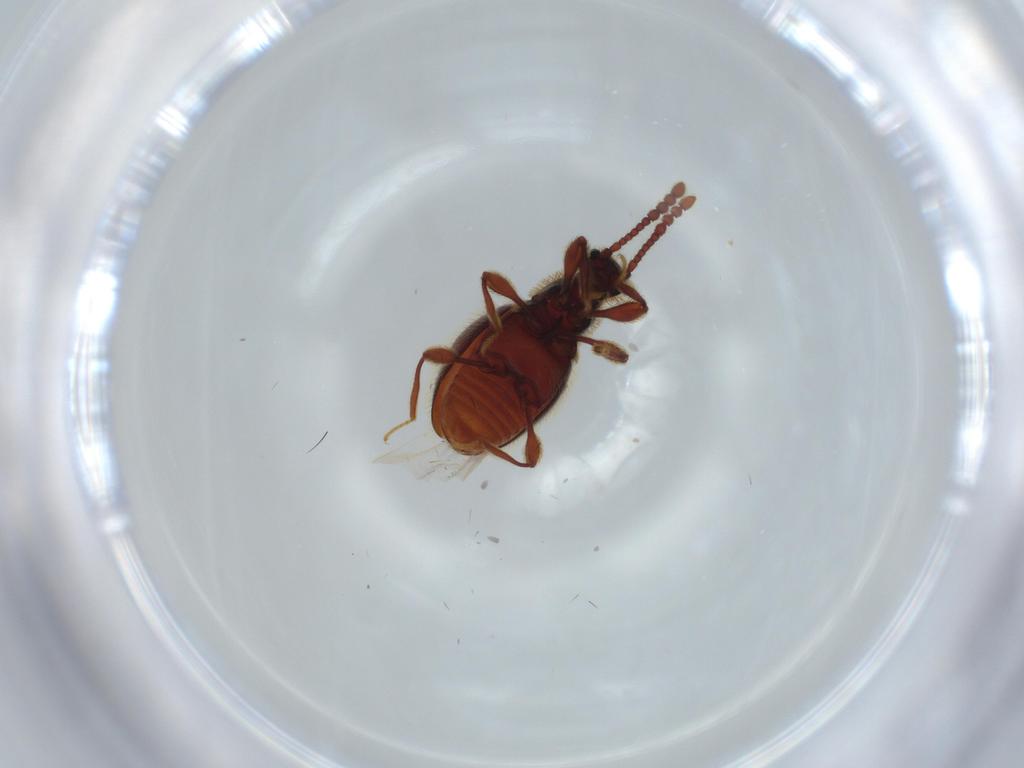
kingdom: Animalia
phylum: Arthropoda
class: Insecta
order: Coleoptera
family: Staphylinidae
